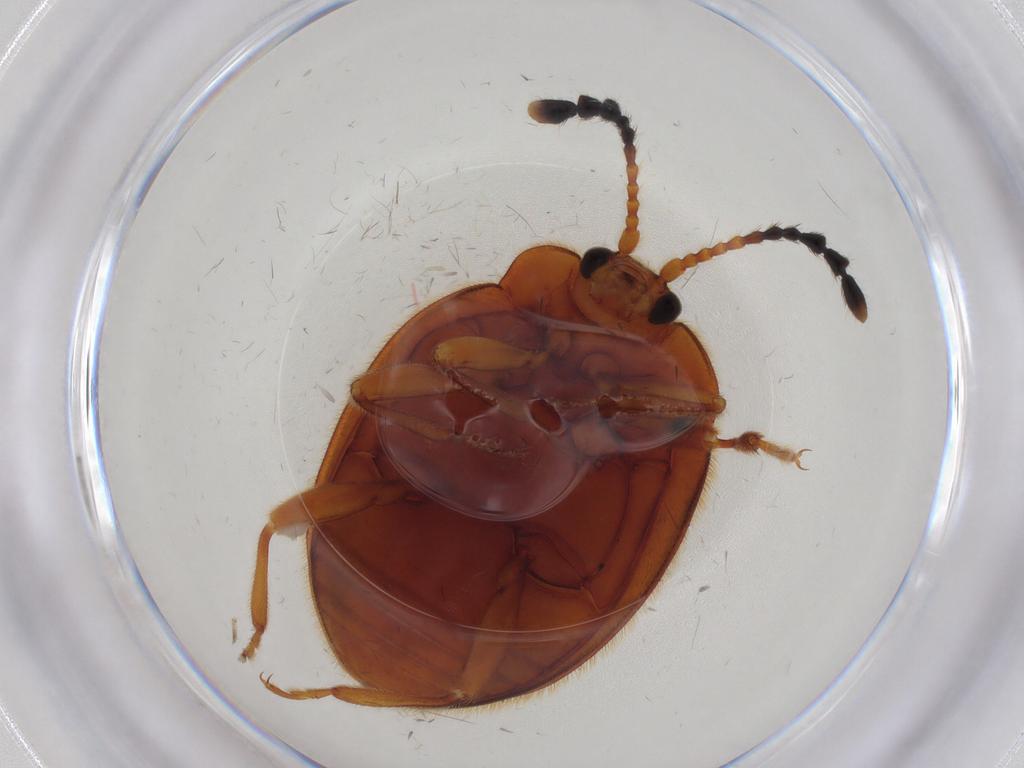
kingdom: Animalia
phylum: Arthropoda
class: Insecta
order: Coleoptera
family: Endomychidae
